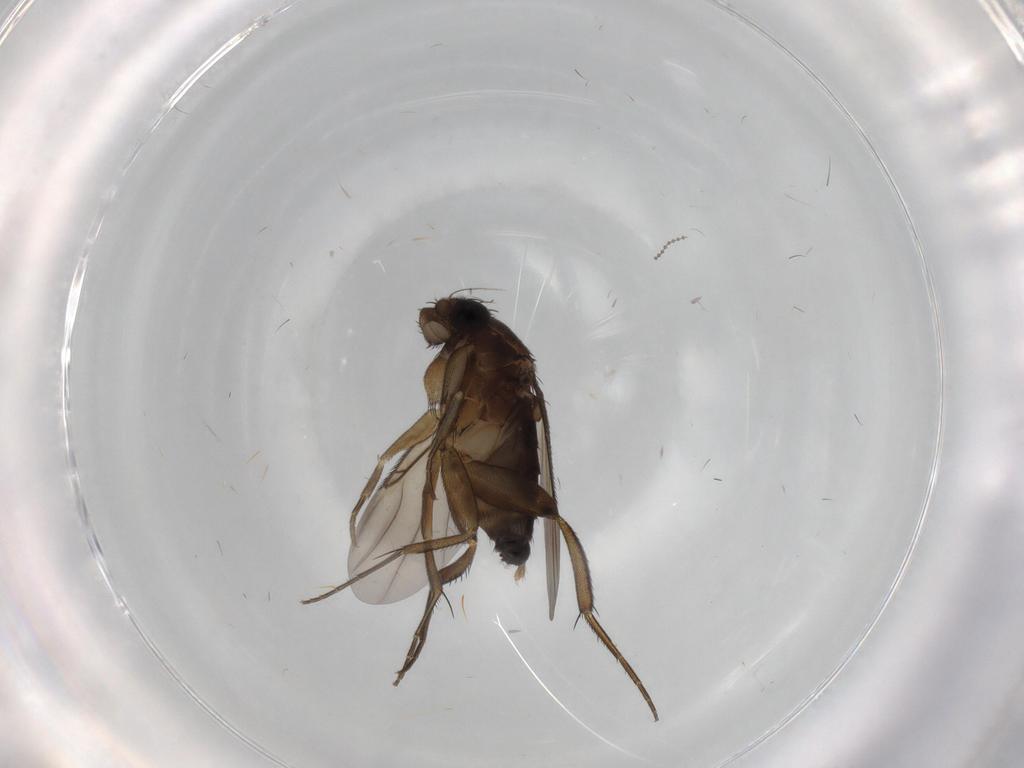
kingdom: Animalia
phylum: Arthropoda
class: Insecta
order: Diptera
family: Phoridae
